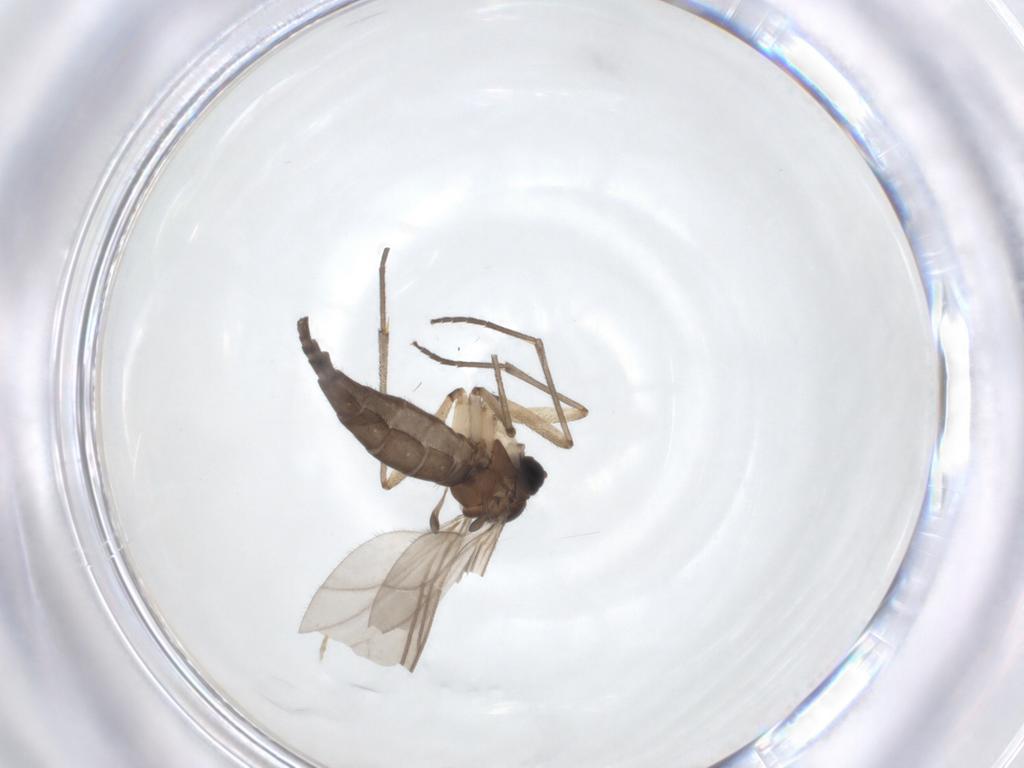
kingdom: Animalia
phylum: Arthropoda
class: Insecta
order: Diptera
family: Sciaridae
